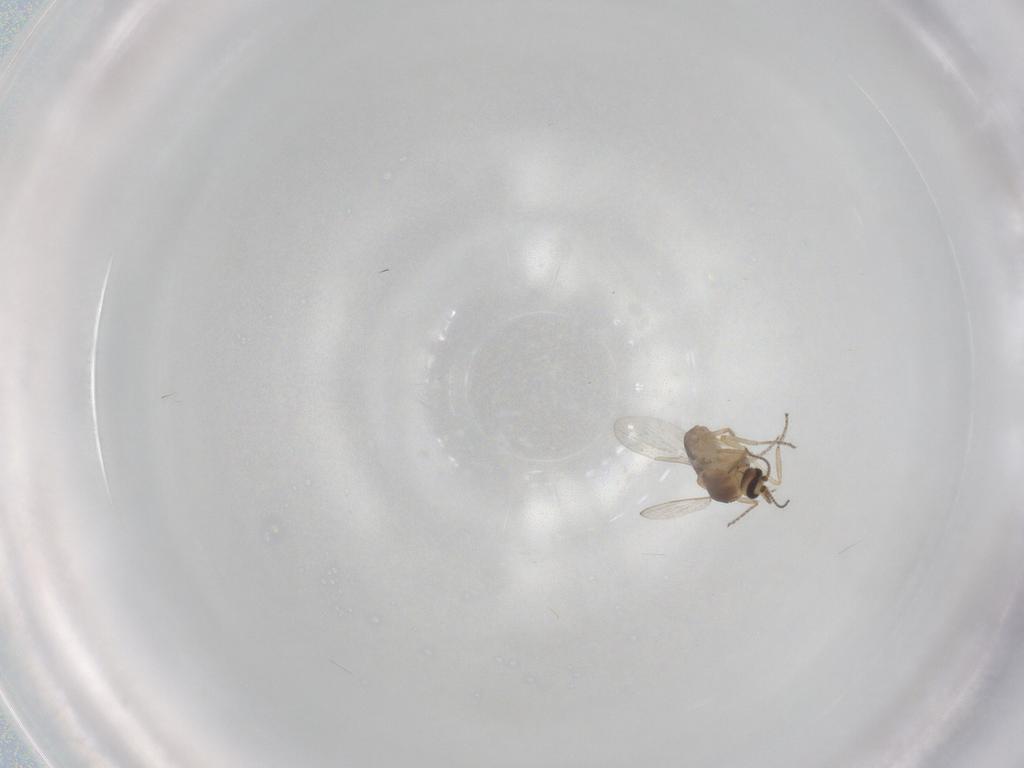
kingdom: Animalia
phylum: Arthropoda
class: Insecta
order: Diptera
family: Ceratopogonidae
